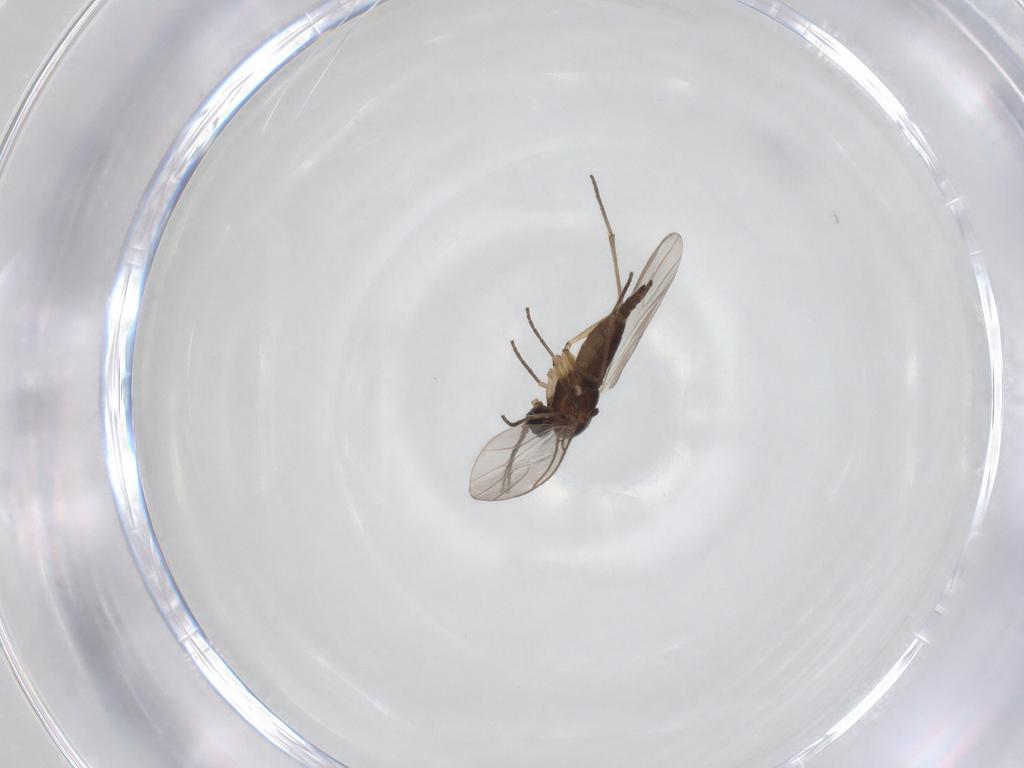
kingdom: Animalia
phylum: Arthropoda
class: Insecta
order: Diptera
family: Sciaridae
